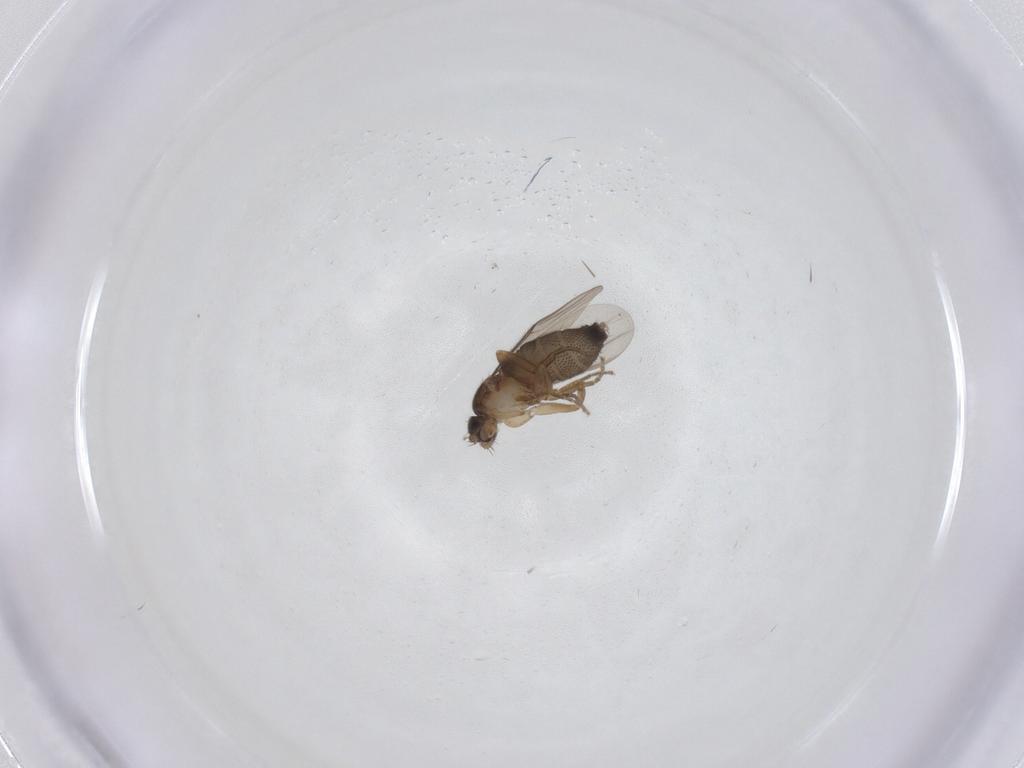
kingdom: Animalia
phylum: Arthropoda
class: Insecta
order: Diptera
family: Phoridae
